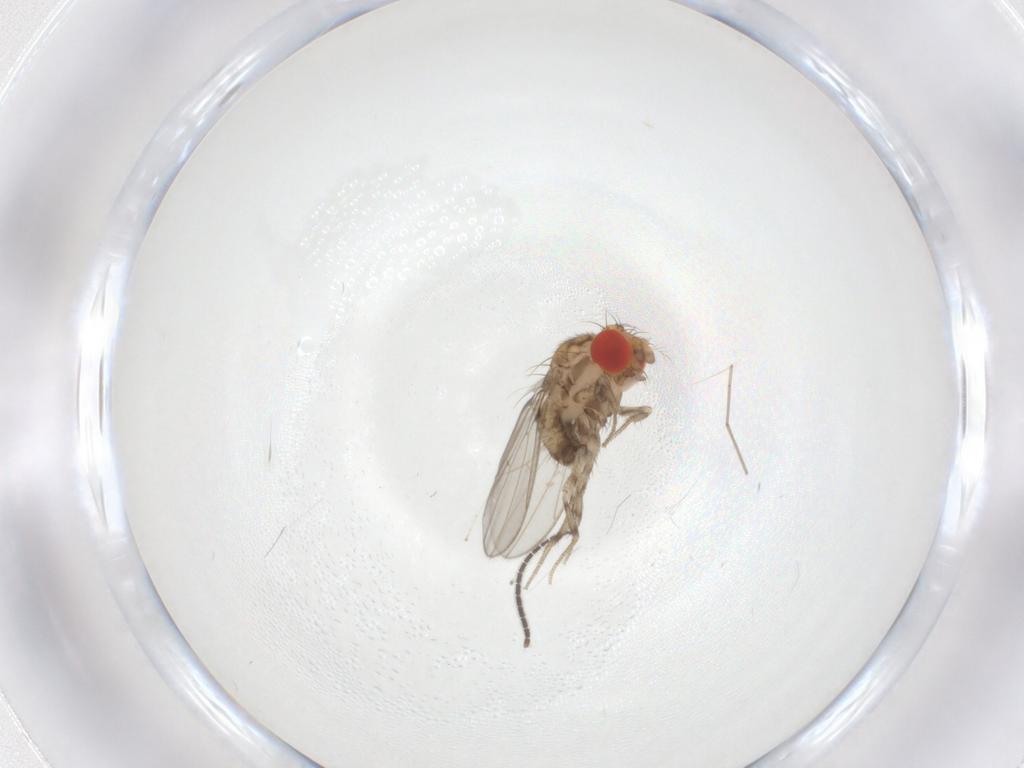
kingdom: Animalia
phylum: Arthropoda
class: Insecta
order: Diptera
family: Drosophilidae
